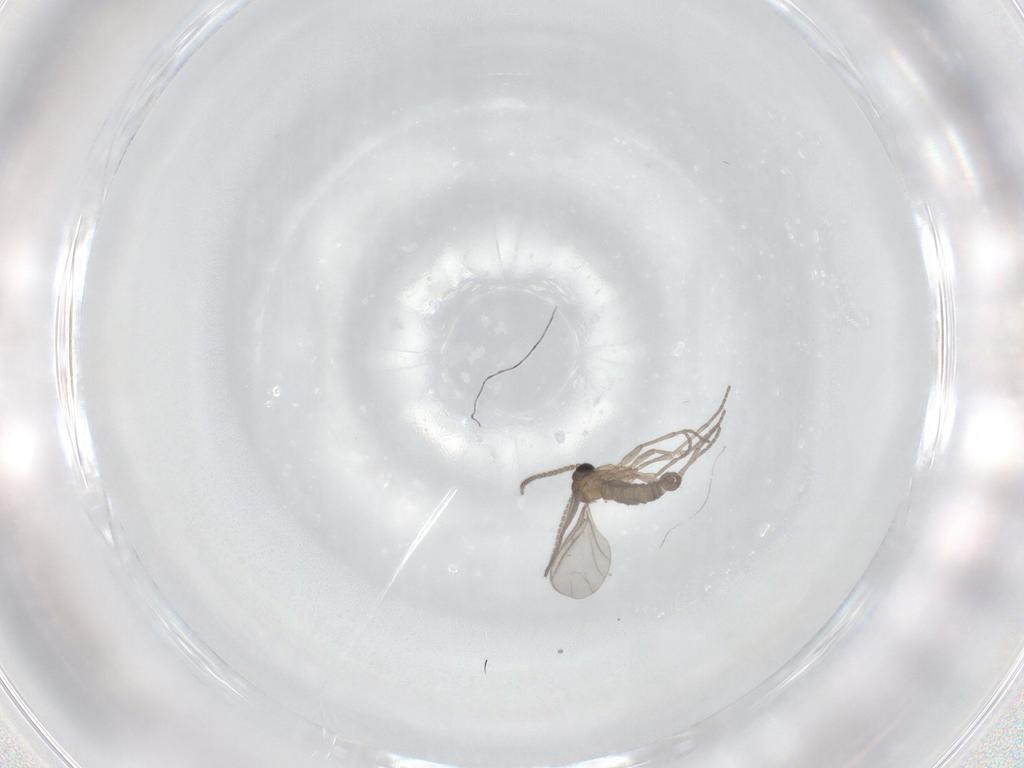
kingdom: Animalia
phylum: Arthropoda
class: Insecta
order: Diptera
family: Sciaridae
